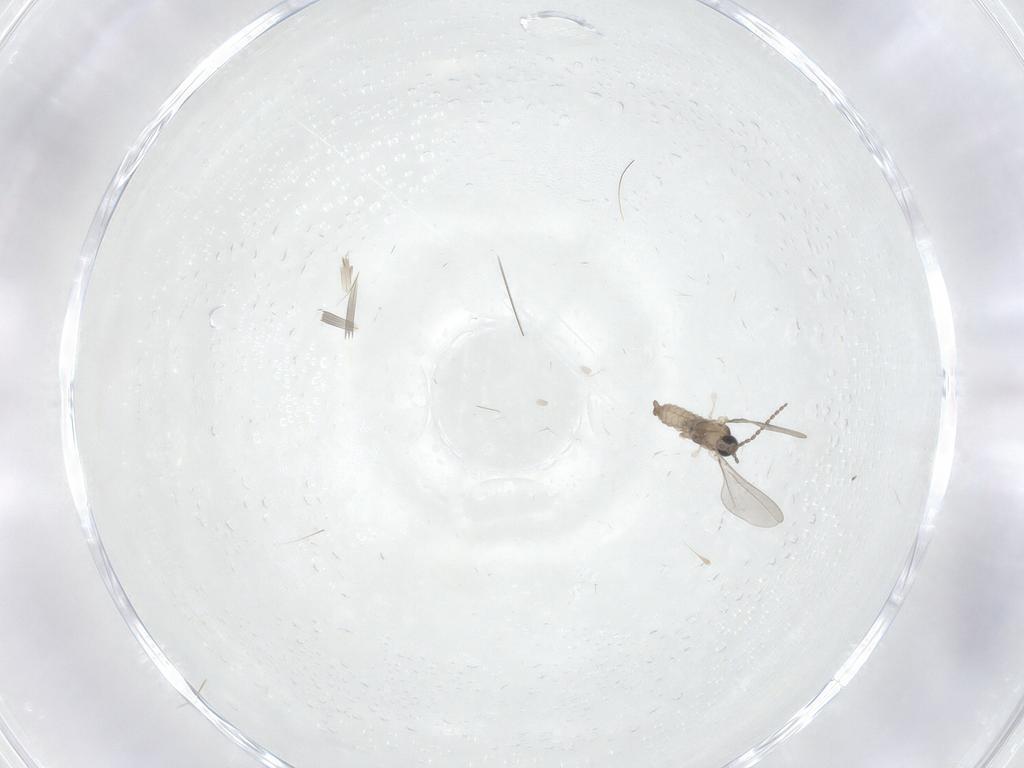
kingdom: Animalia
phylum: Arthropoda
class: Insecta
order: Diptera
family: Ceratopogonidae
